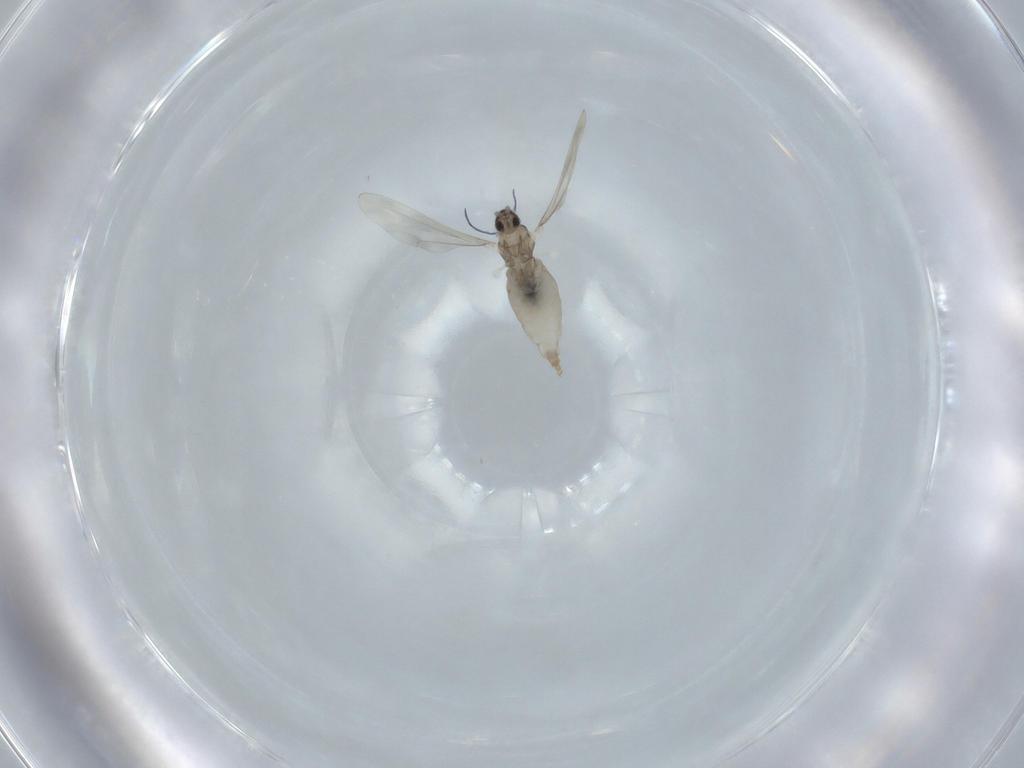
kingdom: Animalia
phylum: Arthropoda
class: Insecta
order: Diptera
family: Cecidomyiidae
